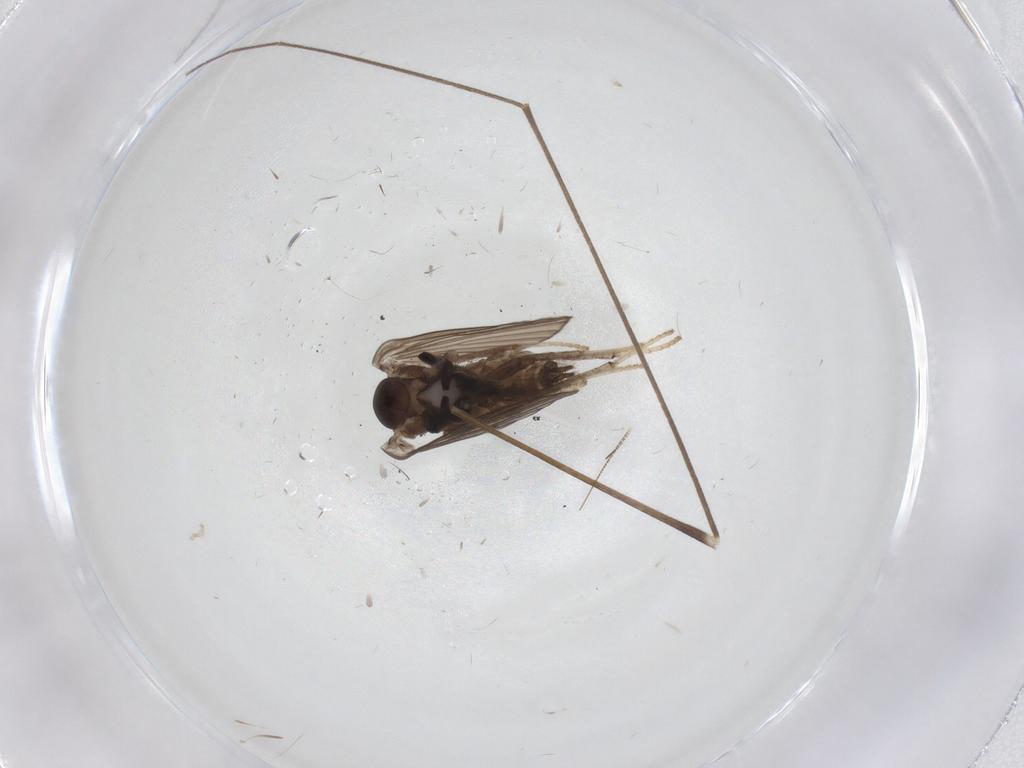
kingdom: Animalia
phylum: Arthropoda
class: Insecta
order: Diptera
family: Psychodidae
